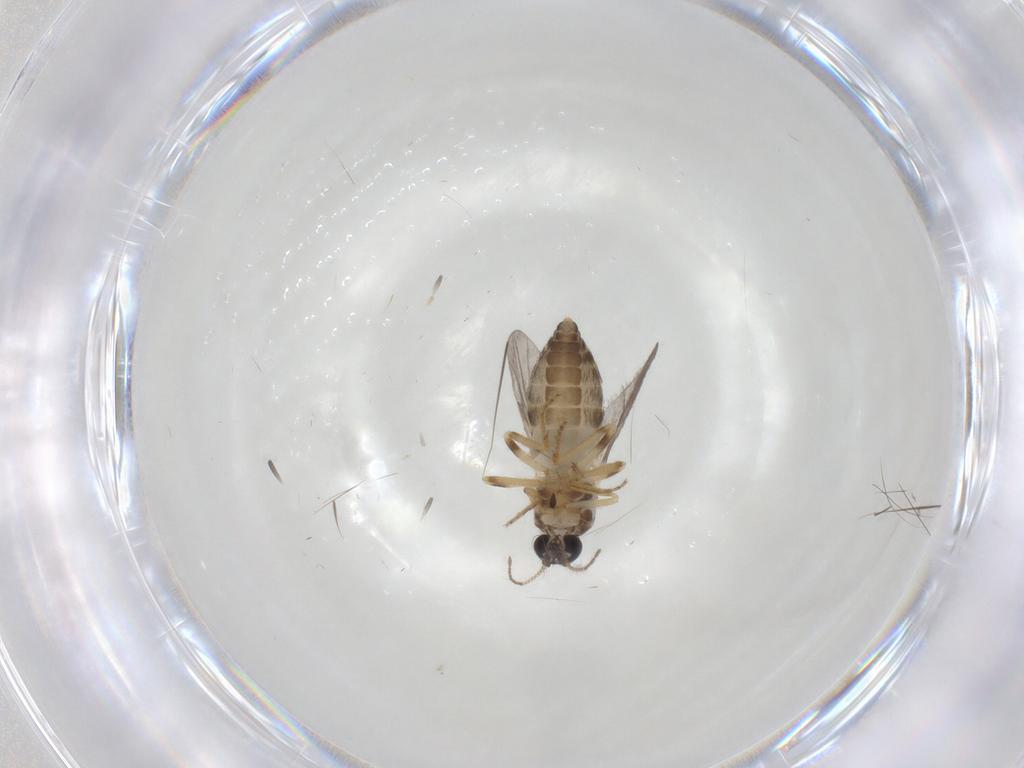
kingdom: Animalia
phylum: Arthropoda
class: Insecta
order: Diptera
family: Ceratopogonidae
